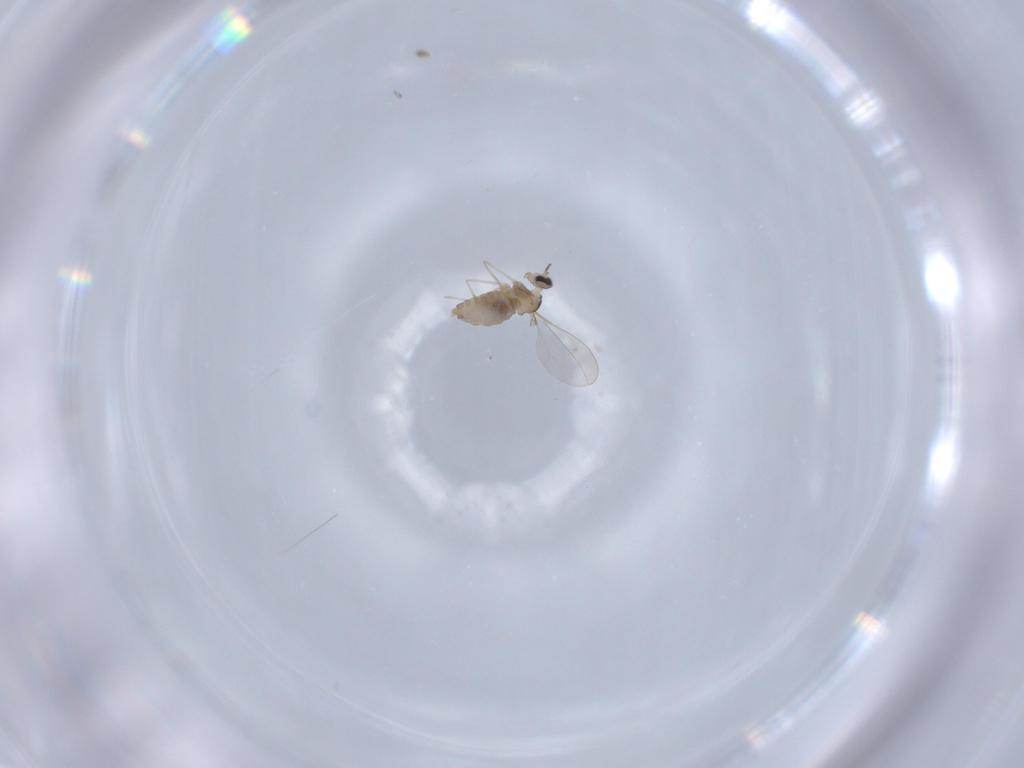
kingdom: Animalia
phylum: Arthropoda
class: Insecta
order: Diptera
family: Cecidomyiidae
